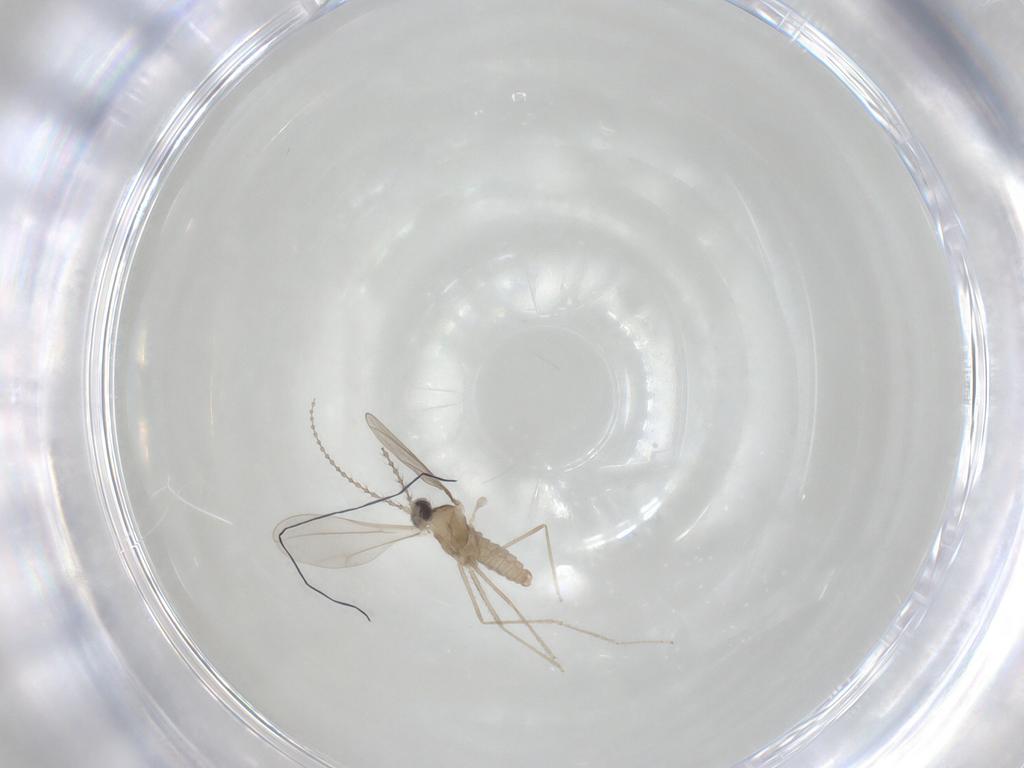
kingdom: Animalia
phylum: Arthropoda
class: Insecta
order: Diptera
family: Cecidomyiidae
